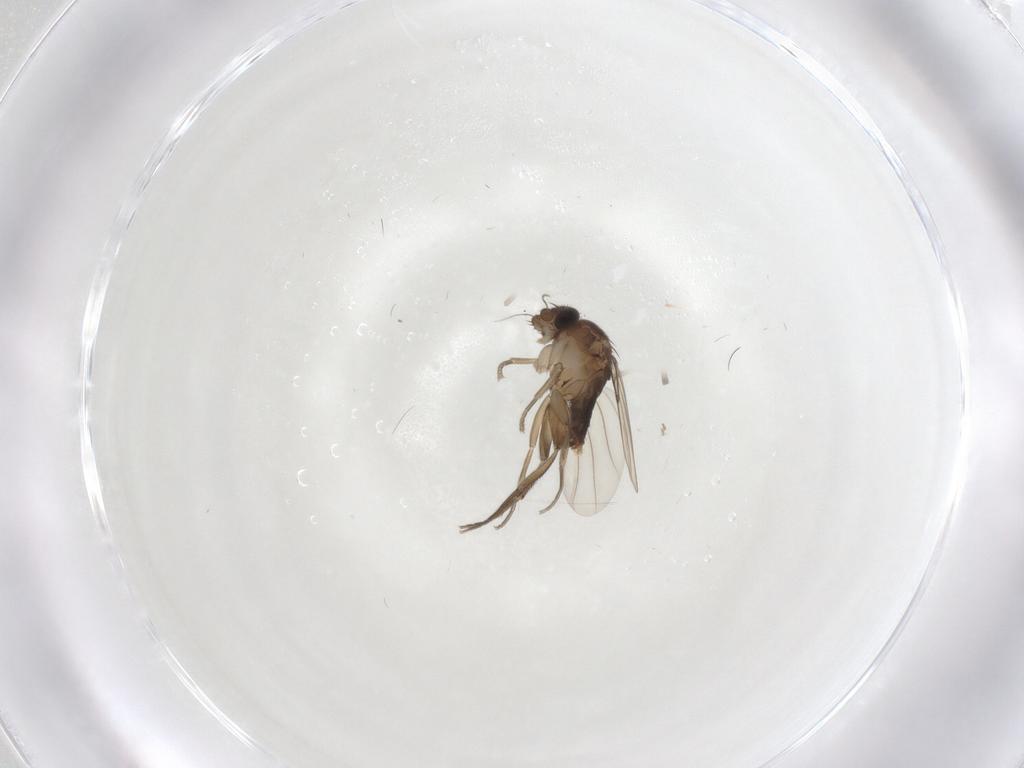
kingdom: Animalia
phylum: Arthropoda
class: Insecta
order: Diptera
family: Phoridae
